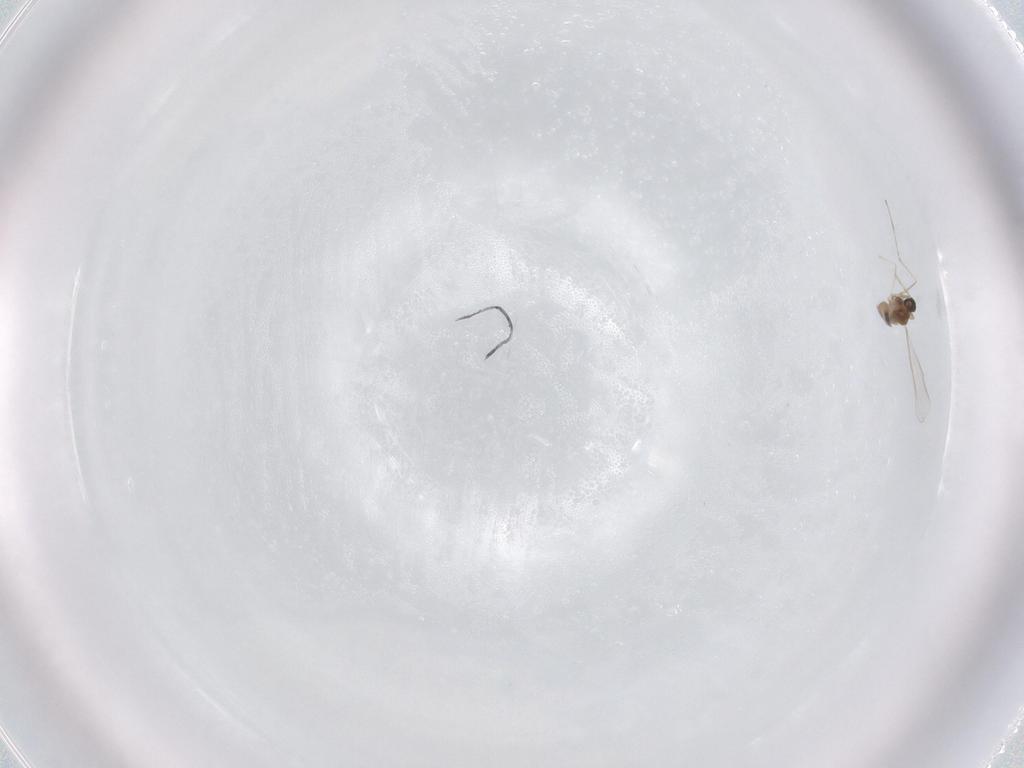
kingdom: Animalia
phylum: Arthropoda
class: Insecta
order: Diptera
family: Cecidomyiidae
